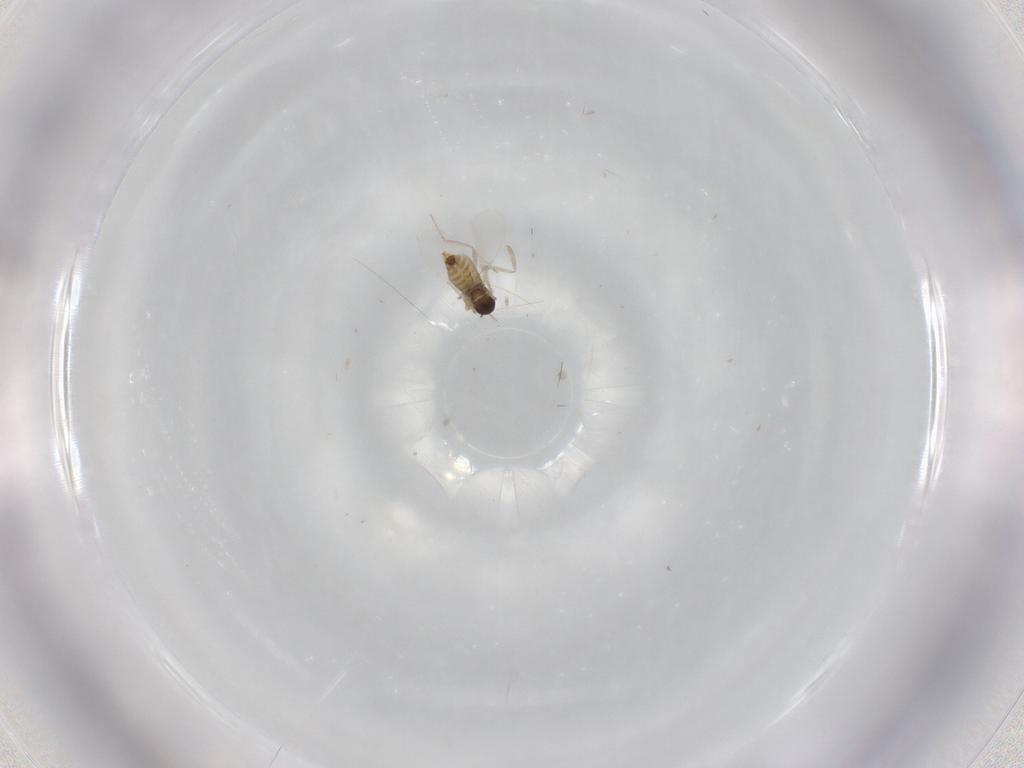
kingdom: Animalia
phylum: Arthropoda
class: Insecta
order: Diptera
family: Cecidomyiidae
